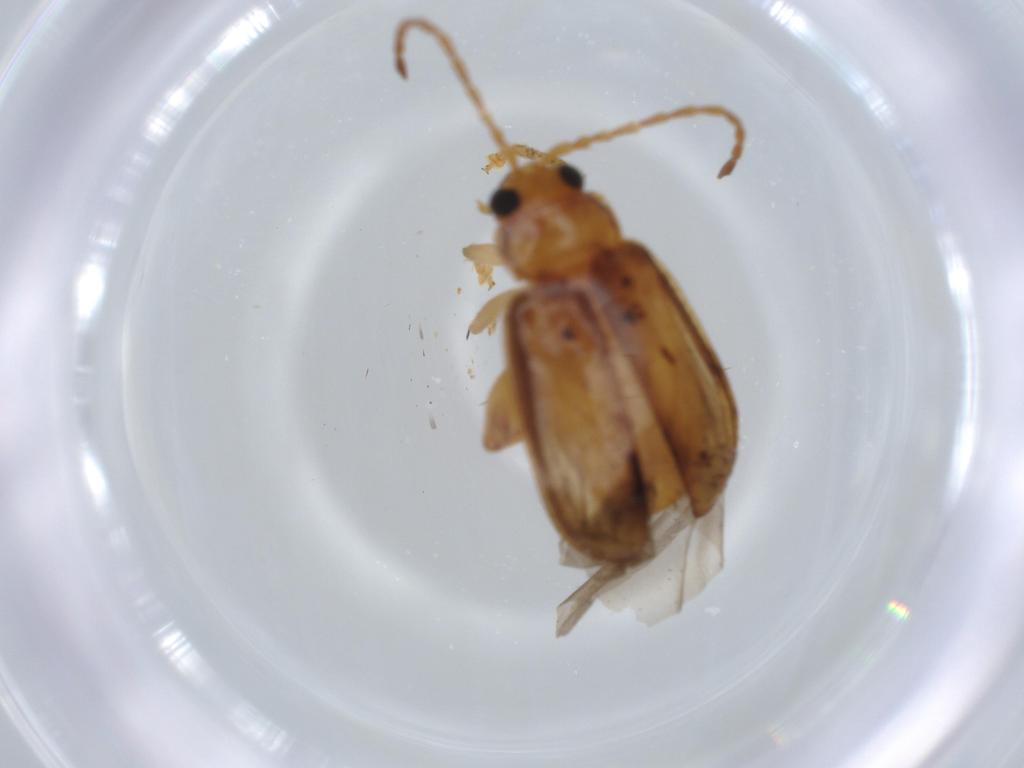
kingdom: Animalia
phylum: Arthropoda
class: Insecta
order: Coleoptera
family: Chrysomelidae
